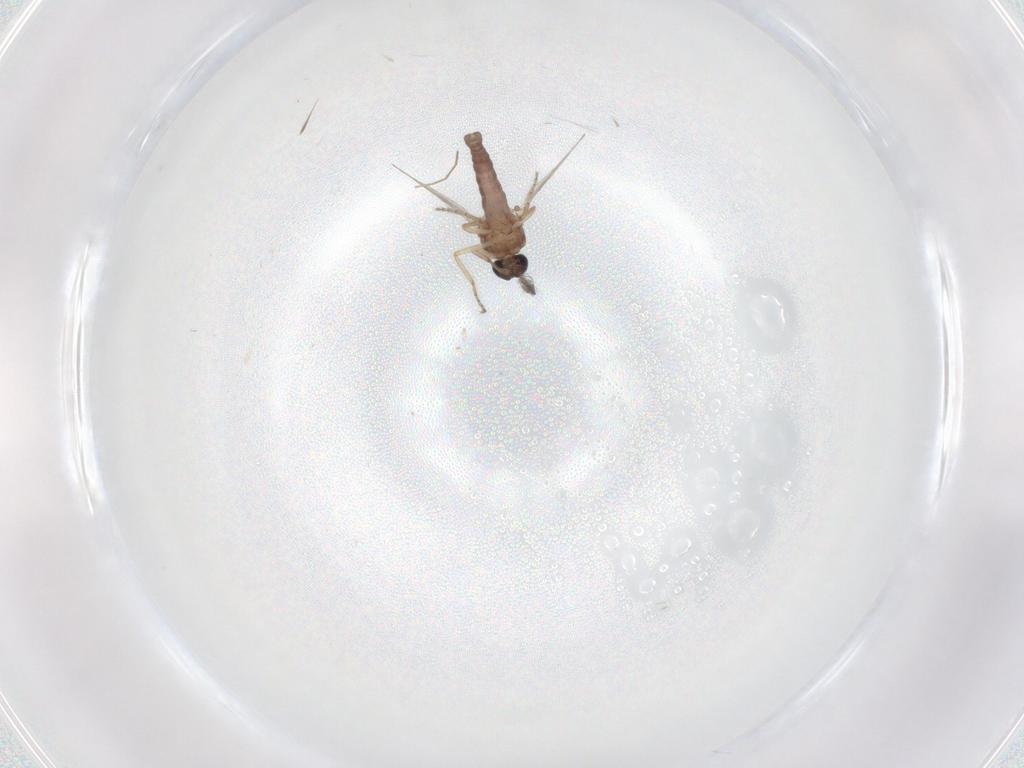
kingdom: Animalia
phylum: Arthropoda
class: Insecta
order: Diptera
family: Ceratopogonidae
